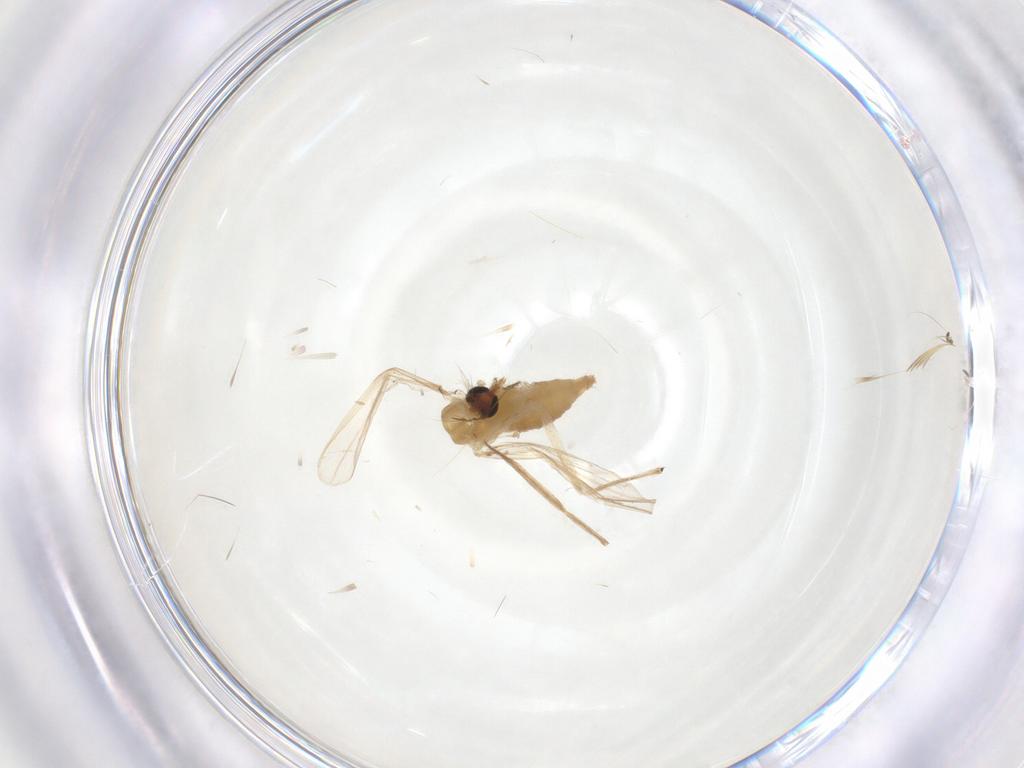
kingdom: Animalia
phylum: Arthropoda
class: Insecta
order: Diptera
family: Chironomidae
